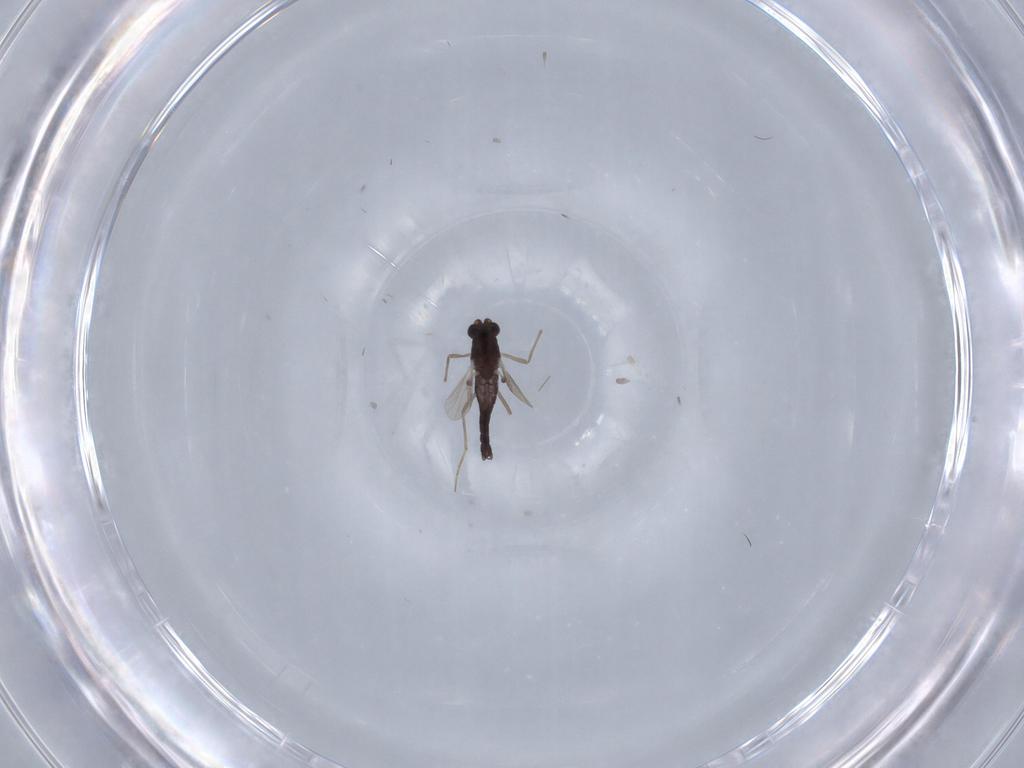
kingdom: Animalia
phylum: Arthropoda
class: Insecta
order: Diptera
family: Chironomidae
